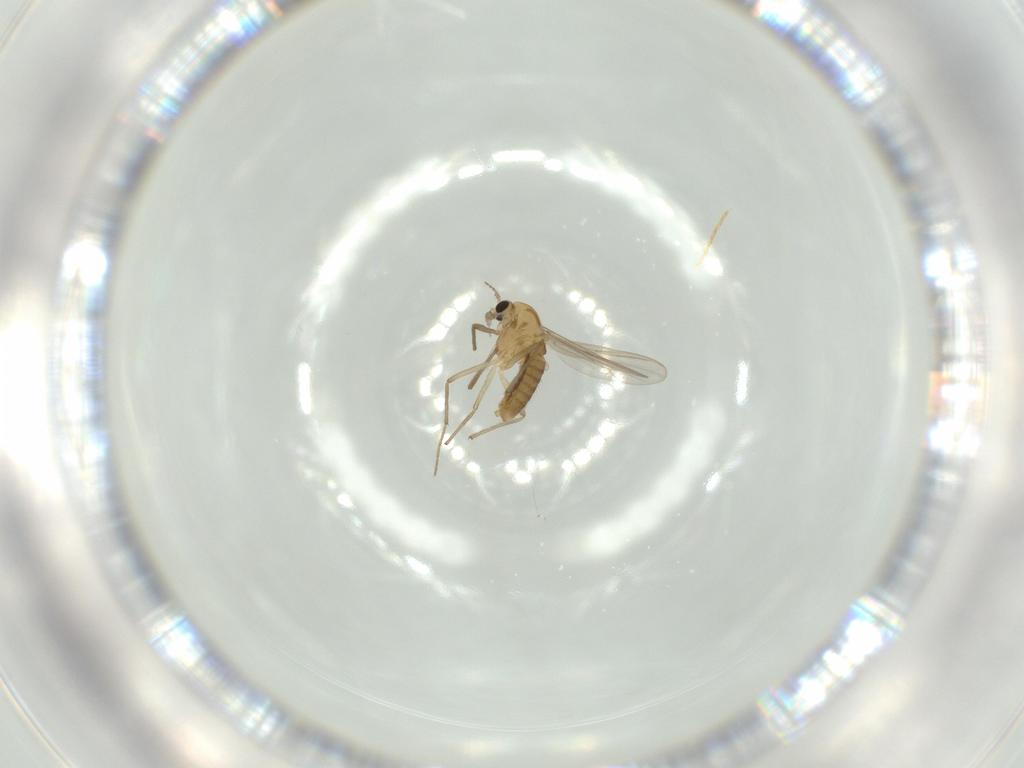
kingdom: Animalia
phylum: Arthropoda
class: Insecta
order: Diptera
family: Chironomidae
